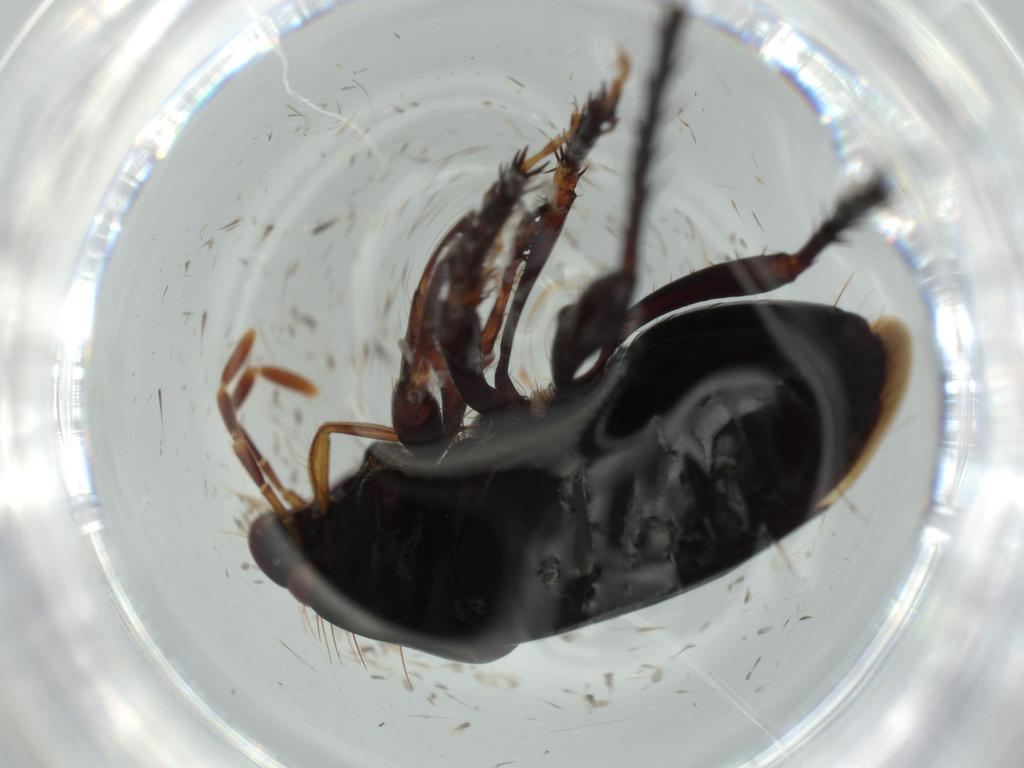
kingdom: Animalia
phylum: Arthropoda
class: Insecta
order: Hemiptera
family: Cydnidae
